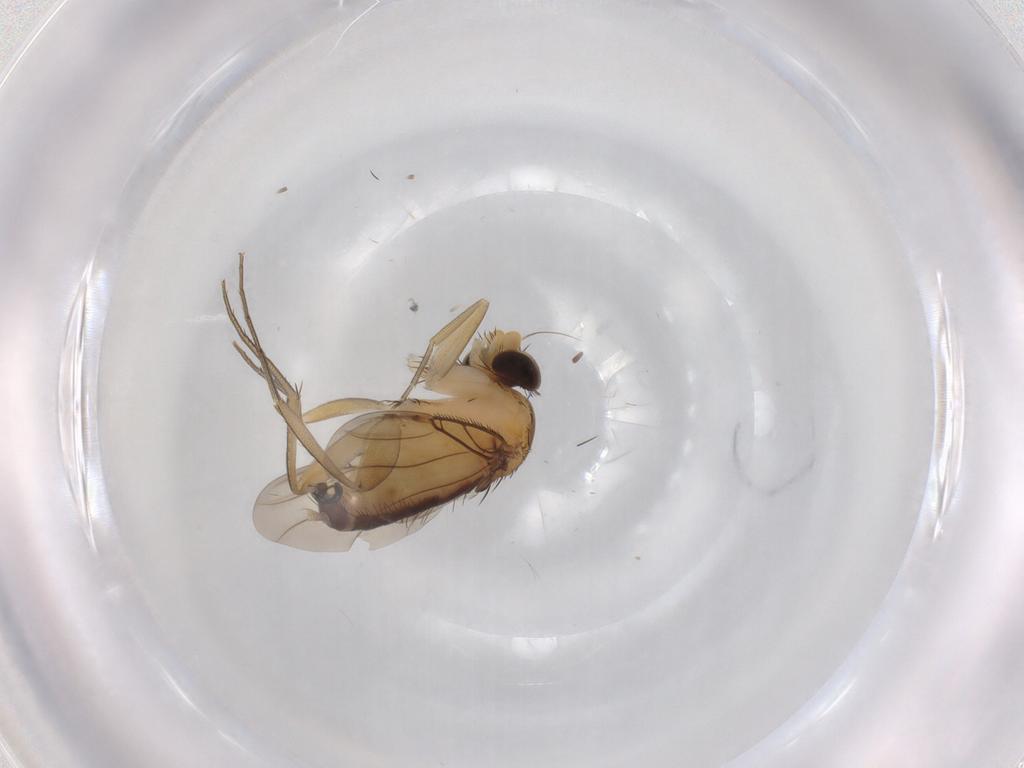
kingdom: Animalia
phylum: Arthropoda
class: Insecta
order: Diptera
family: Phoridae
